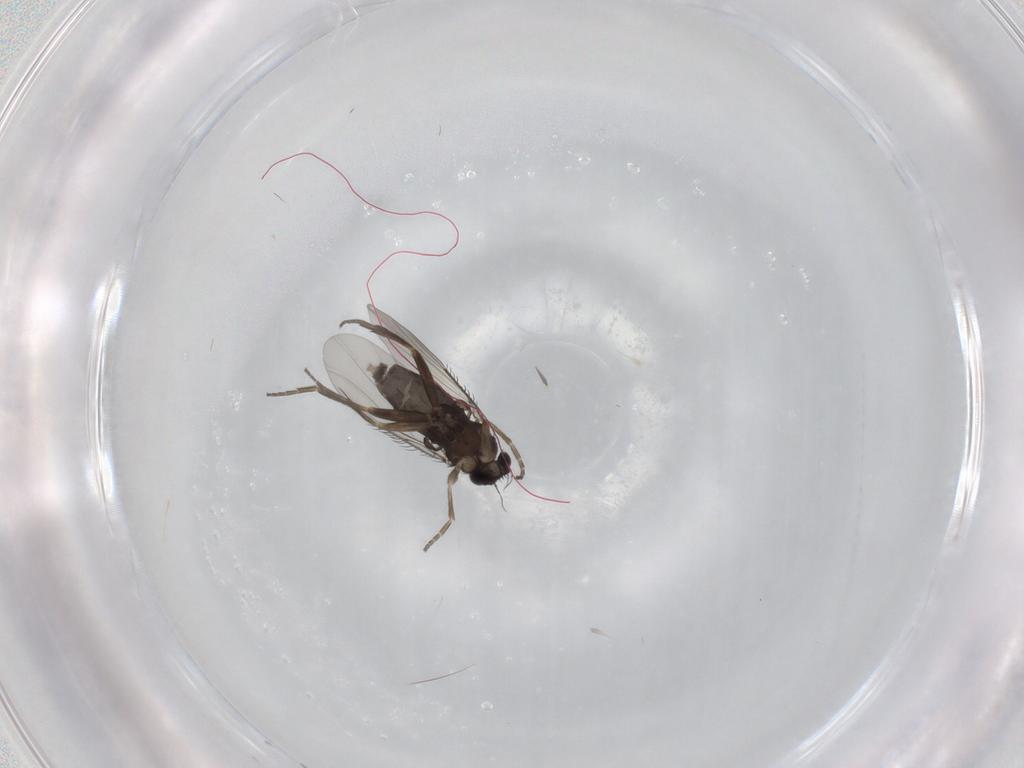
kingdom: Animalia
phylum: Arthropoda
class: Insecta
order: Diptera
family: Phoridae
